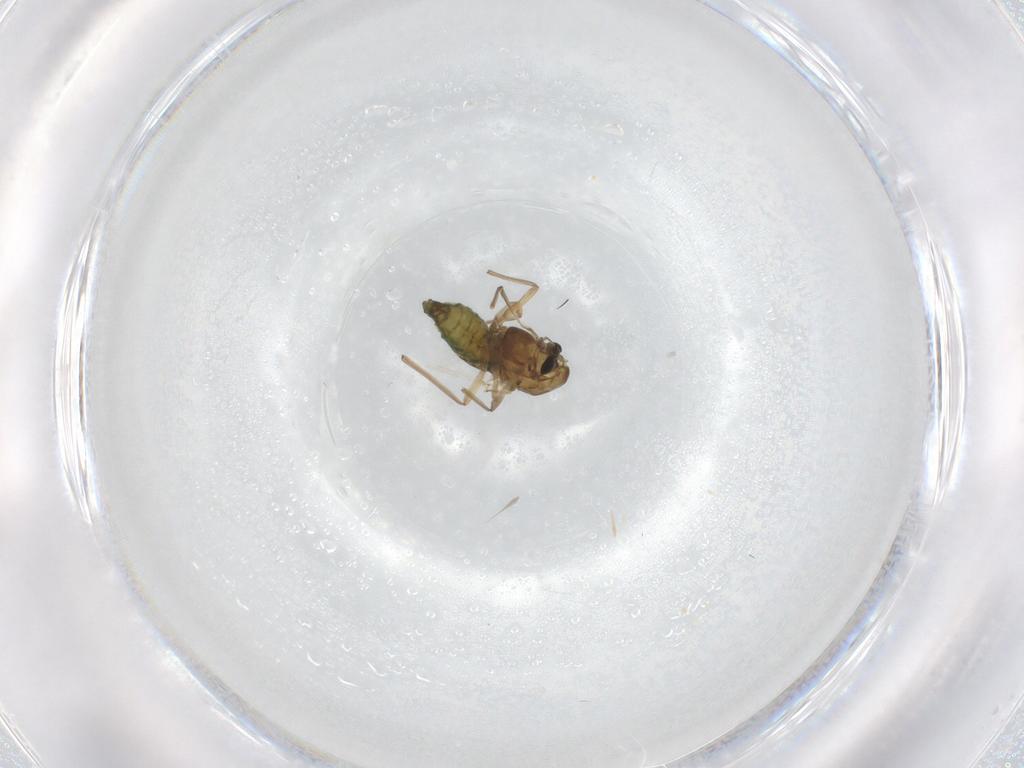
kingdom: Animalia
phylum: Arthropoda
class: Insecta
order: Diptera
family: Chironomidae
